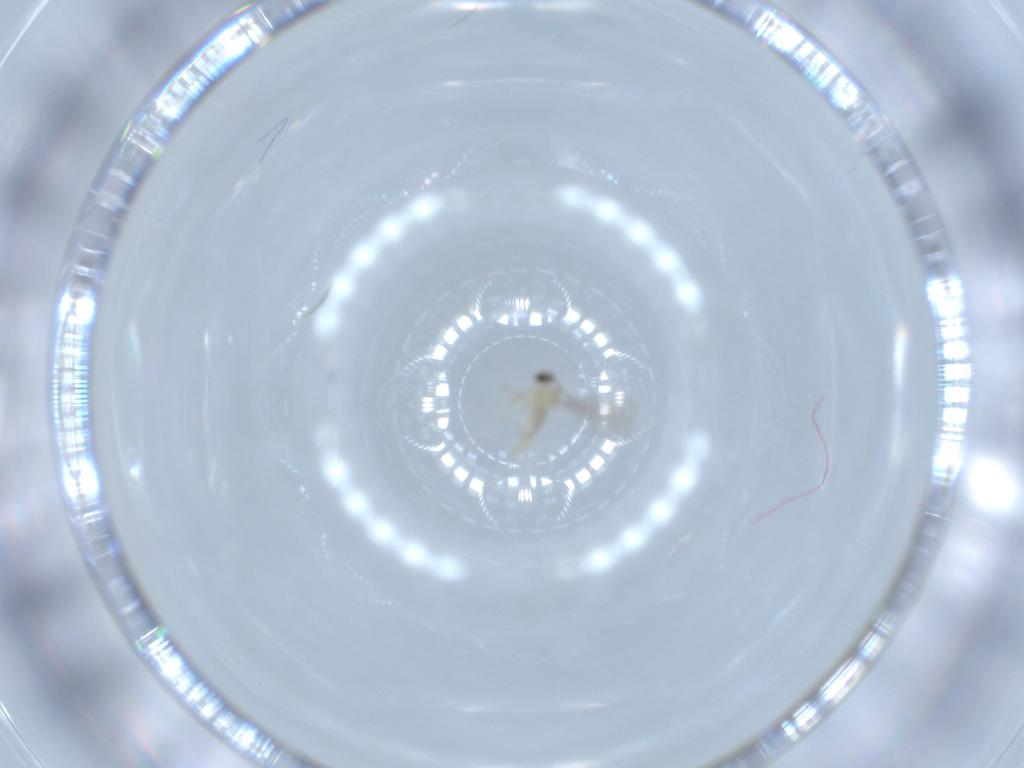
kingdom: Animalia
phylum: Arthropoda
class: Insecta
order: Diptera
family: Cecidomyiidae
